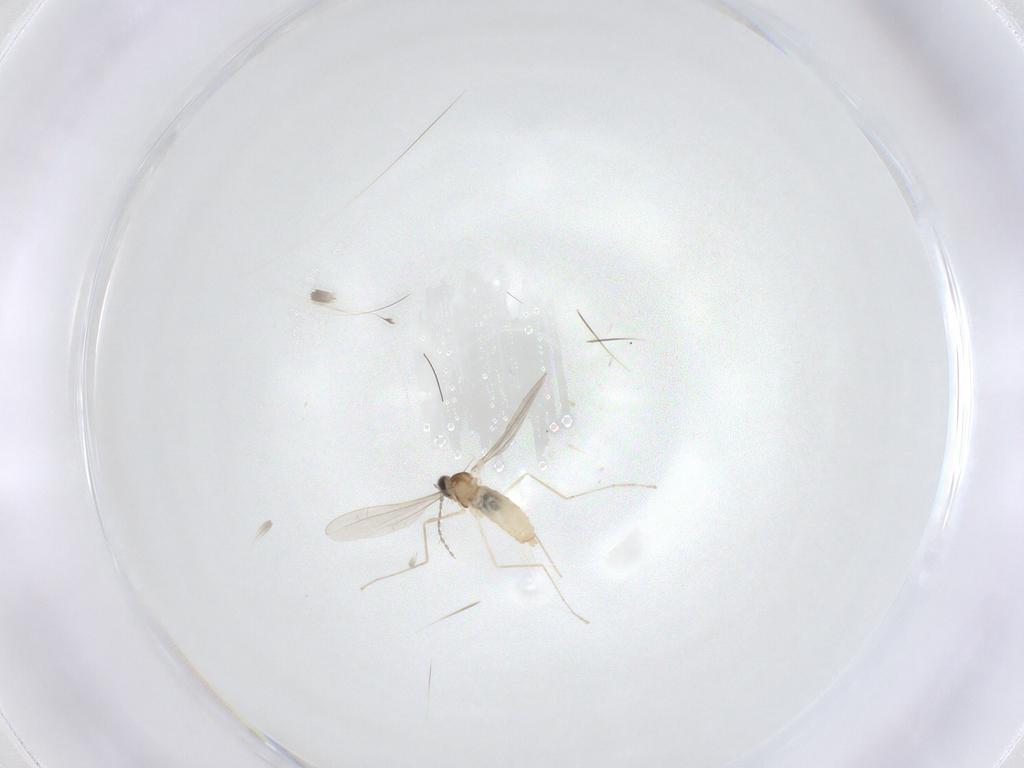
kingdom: Animalia
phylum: Arthropoda
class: Insecta
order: Diptera
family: Cecidomyiidae
